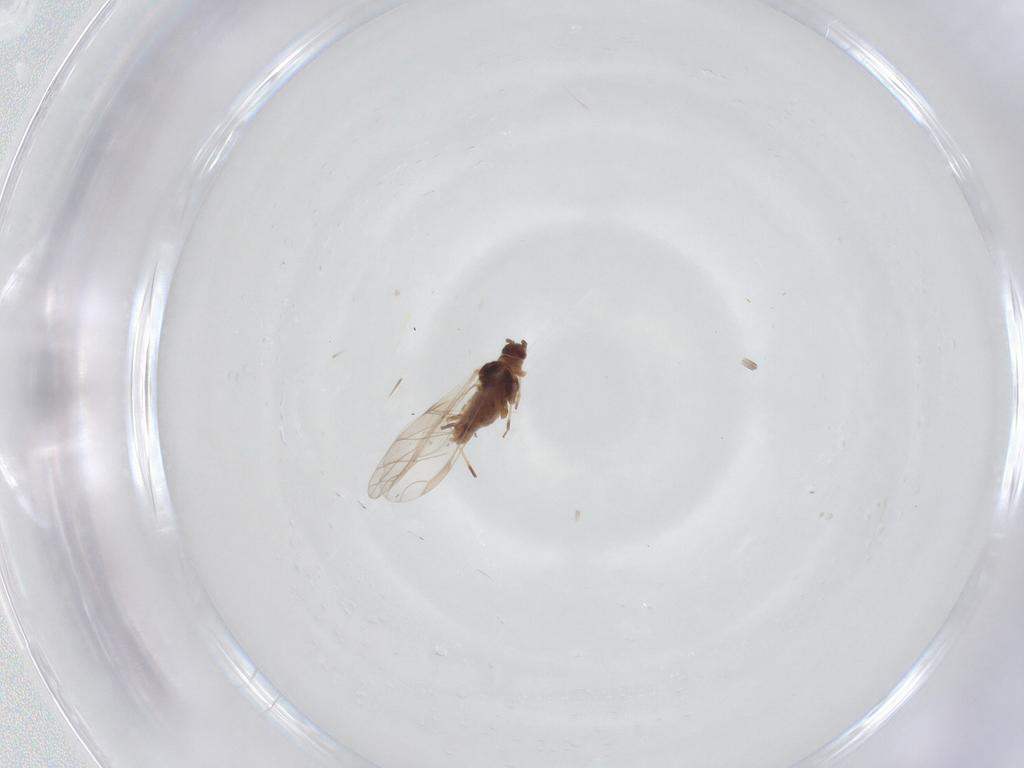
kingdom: Animalia
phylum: Arthropoda
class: Insecta
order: Hemiptera
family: Aphididae
